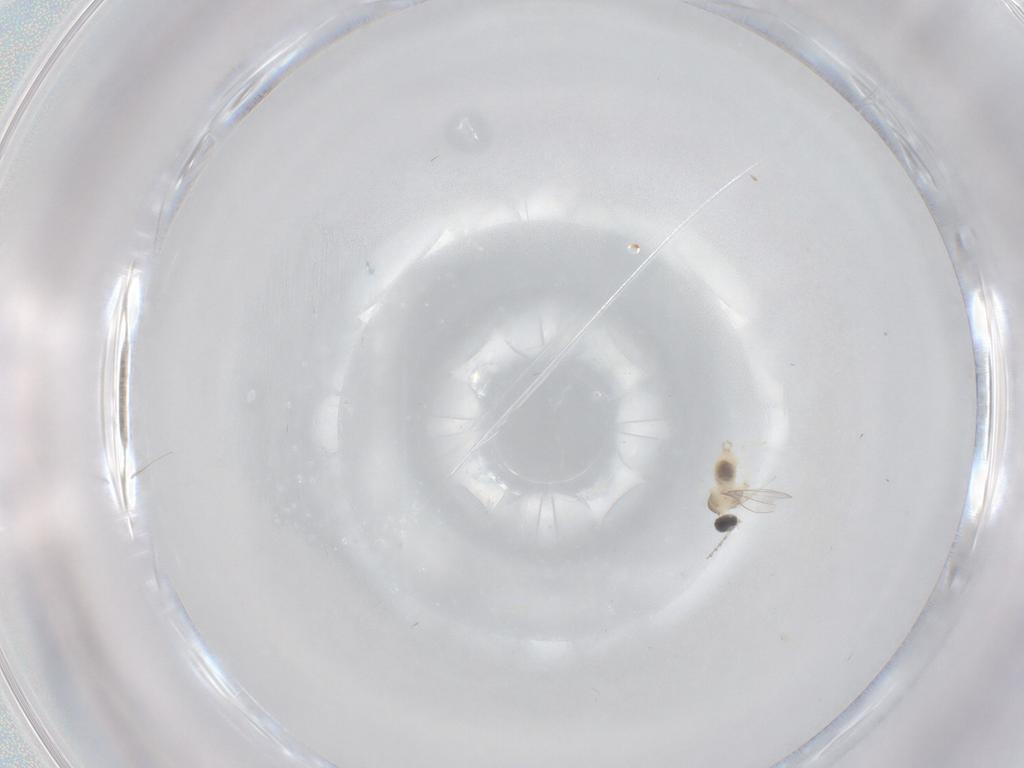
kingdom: Animalia
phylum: Arthropoda
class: Insecta
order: Diptera
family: Cecidomyiidae
